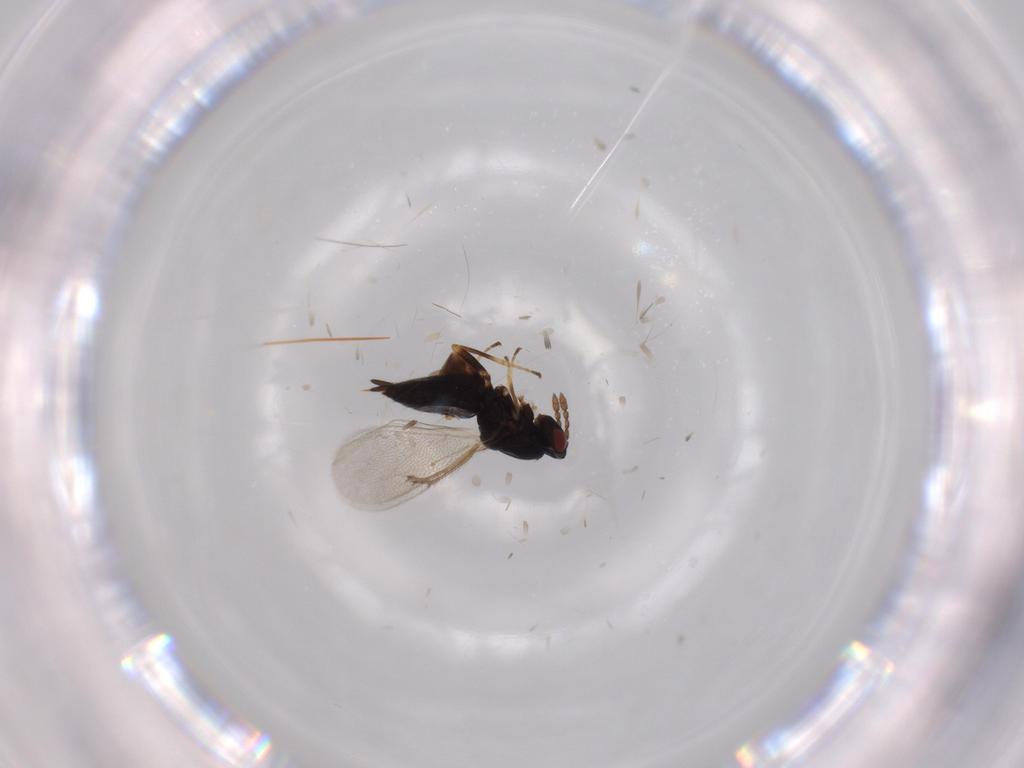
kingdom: Animalia
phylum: Arthropoda
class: Insecta
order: Hymenoptera
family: Eulophidae
